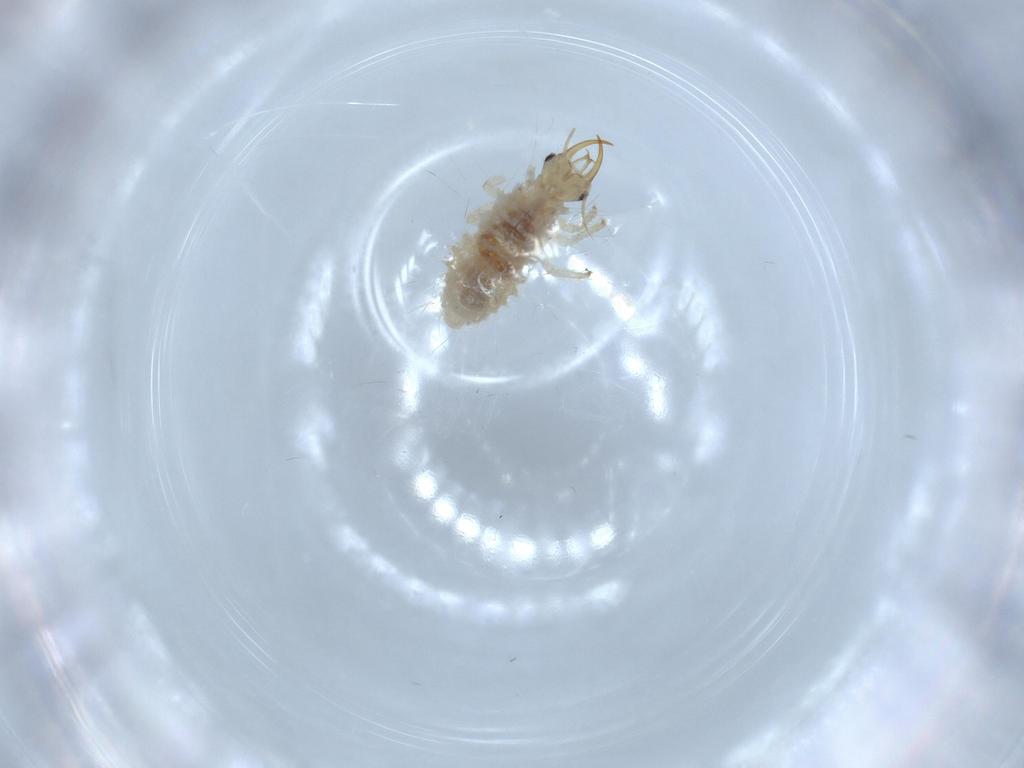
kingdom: Animalia
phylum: Arthropoda
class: Insecta
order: Neuroptera
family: Chrysopidae
